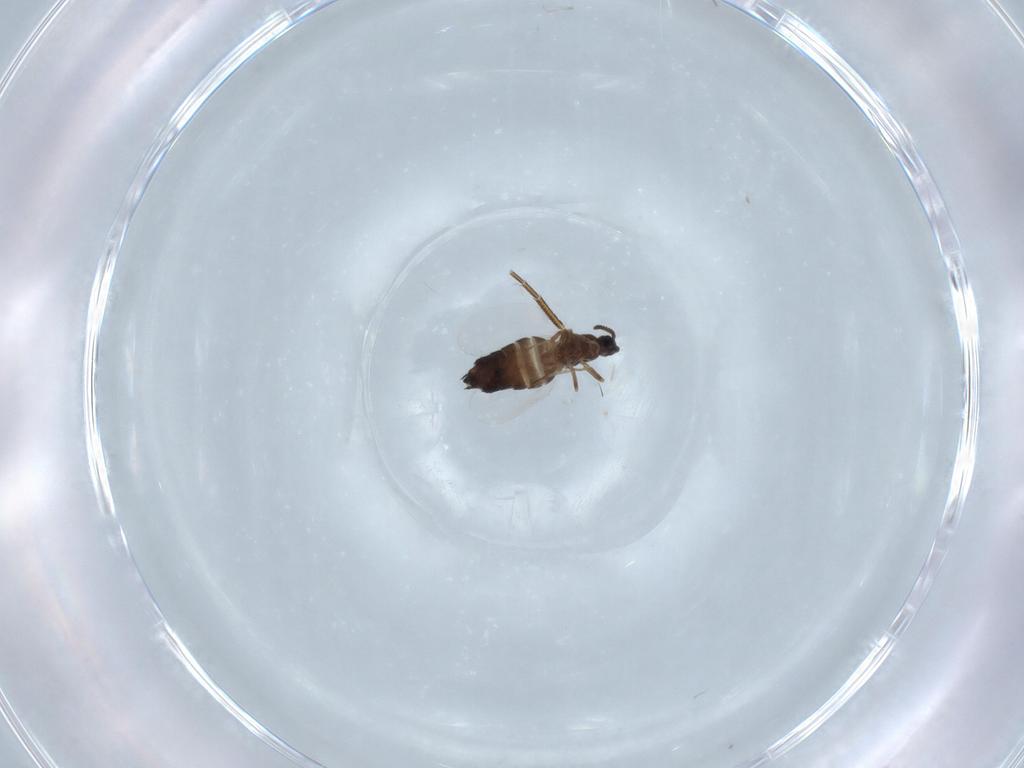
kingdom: Animalia
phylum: Arthropoda
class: Insecta
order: Diptera
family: Scatopsidae
